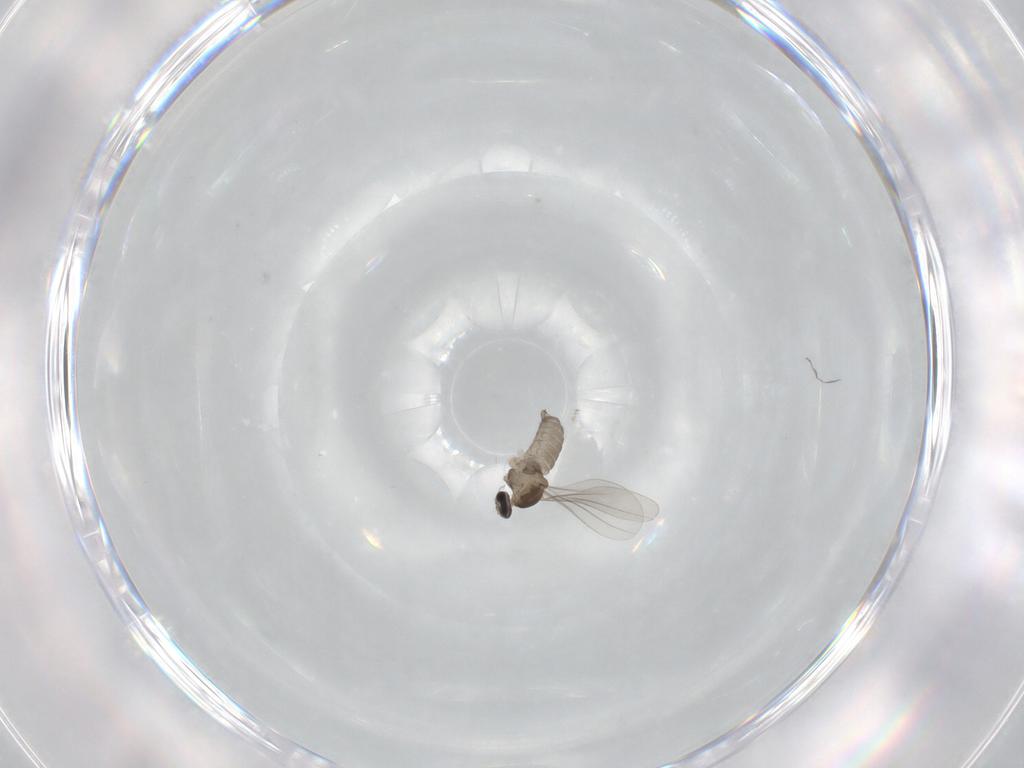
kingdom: Animalia
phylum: Arthropoda
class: Insecta
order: Diptera
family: Cecidomyiidae
